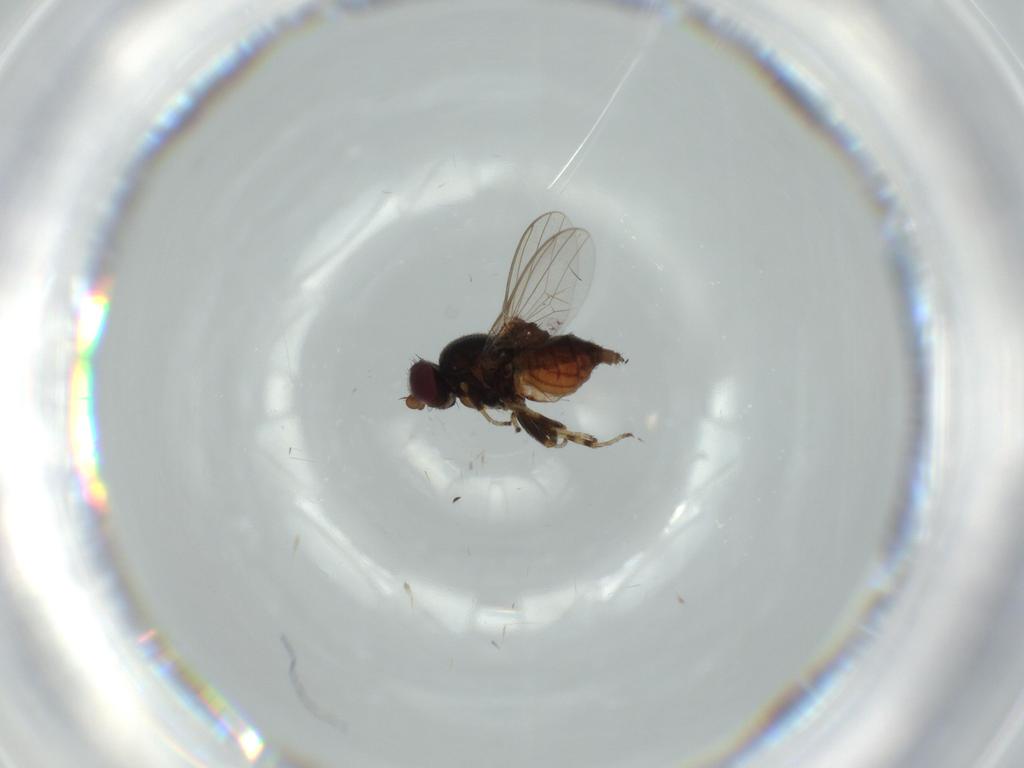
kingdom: Animalia
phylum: Arthropoda
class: Insecta
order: Diptera
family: Chloropidae
